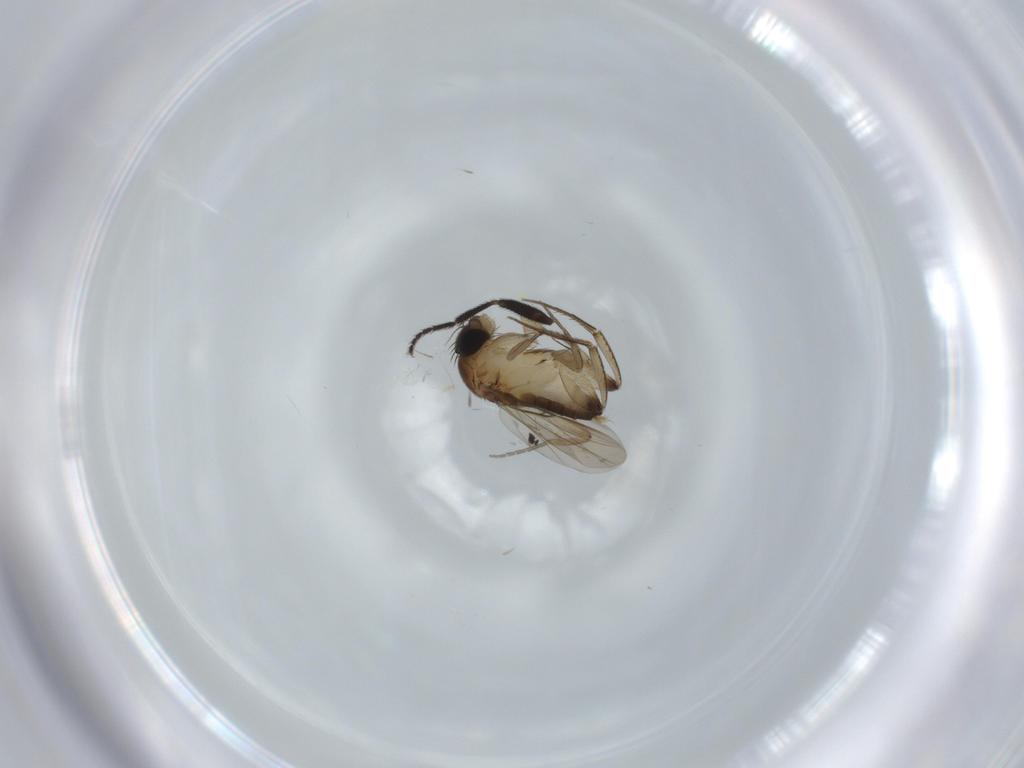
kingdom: Animalia
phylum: Arthropoda
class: Insecta
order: Diptera
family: Phoridae
